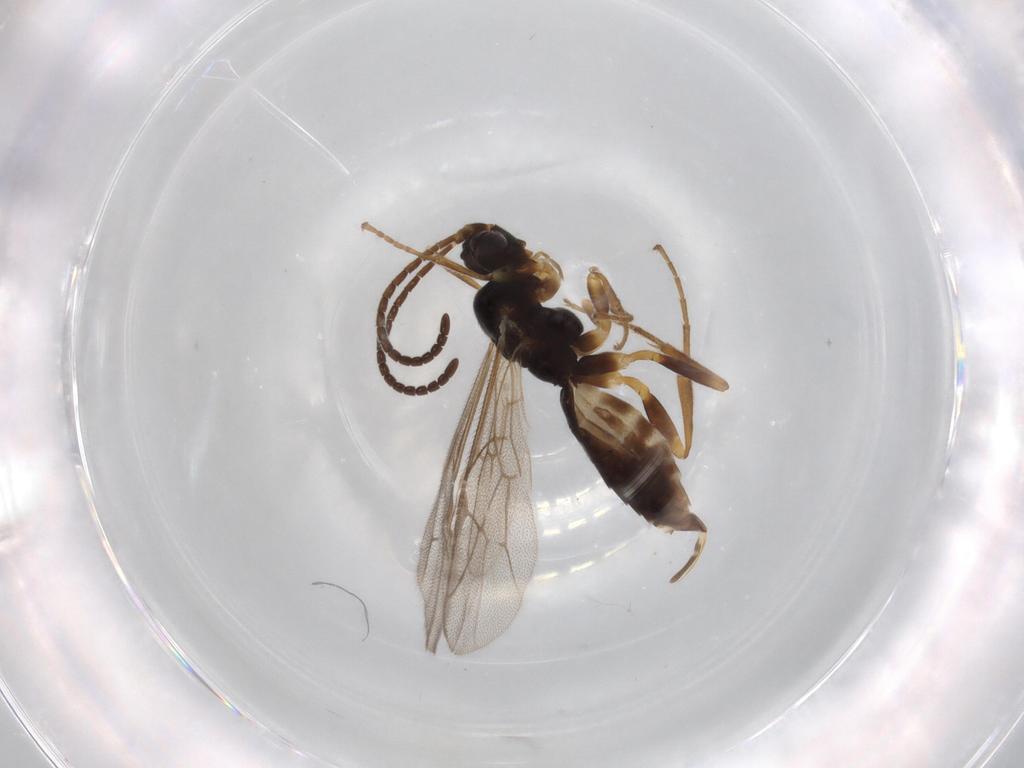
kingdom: Animalia
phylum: Arthropoda
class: Insecta
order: Hymenoptera
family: Ichneumonidae
